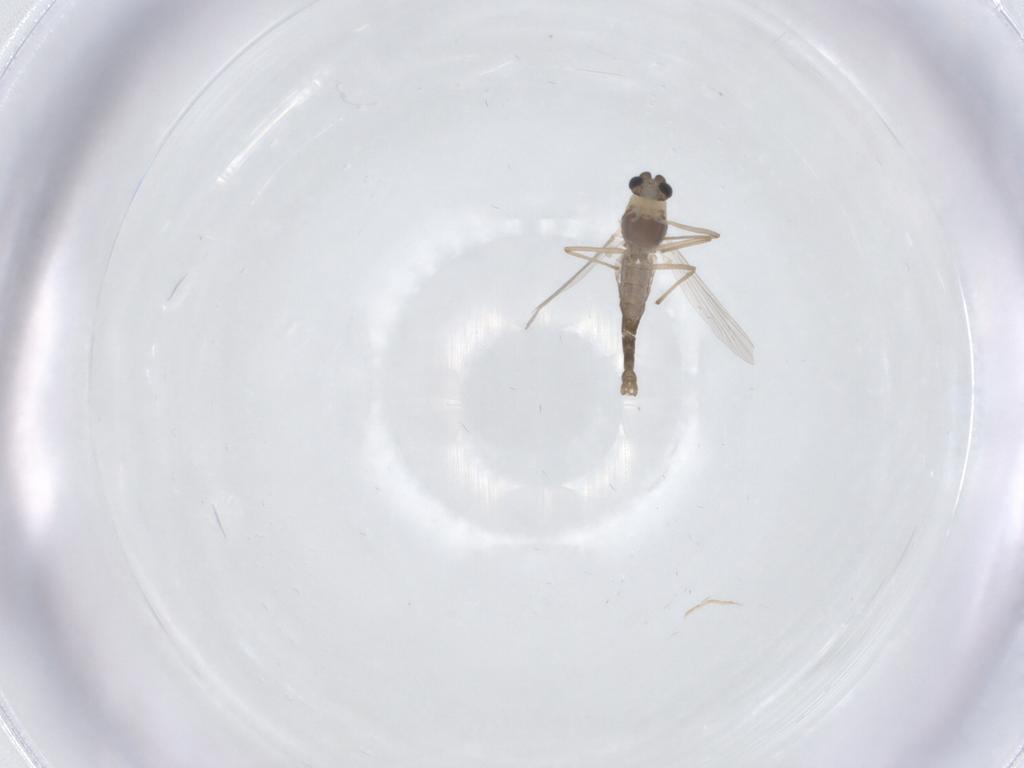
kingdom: Animalia
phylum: Arthropoda
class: Insecta
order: Diptera
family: Chironomidae
